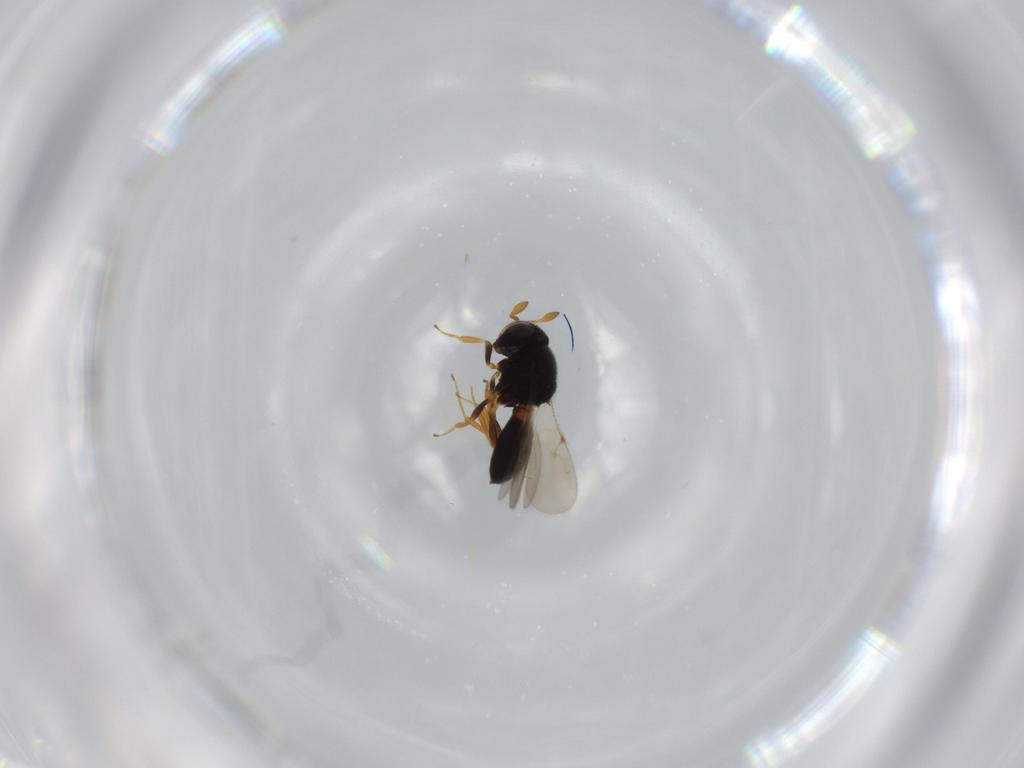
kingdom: Animalia
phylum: Arthropoda
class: Insecta
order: Hymenoptera
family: Scelionidae
